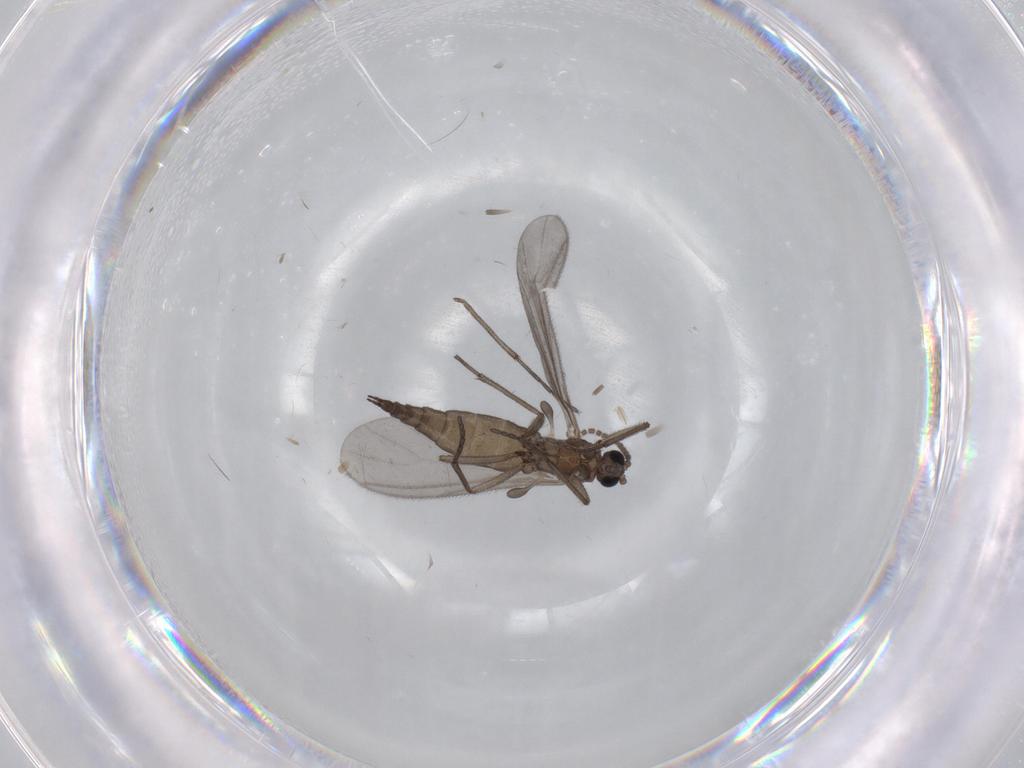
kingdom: Animalia
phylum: Arthropoda
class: Insecta
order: Diptera
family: Sciaridae
